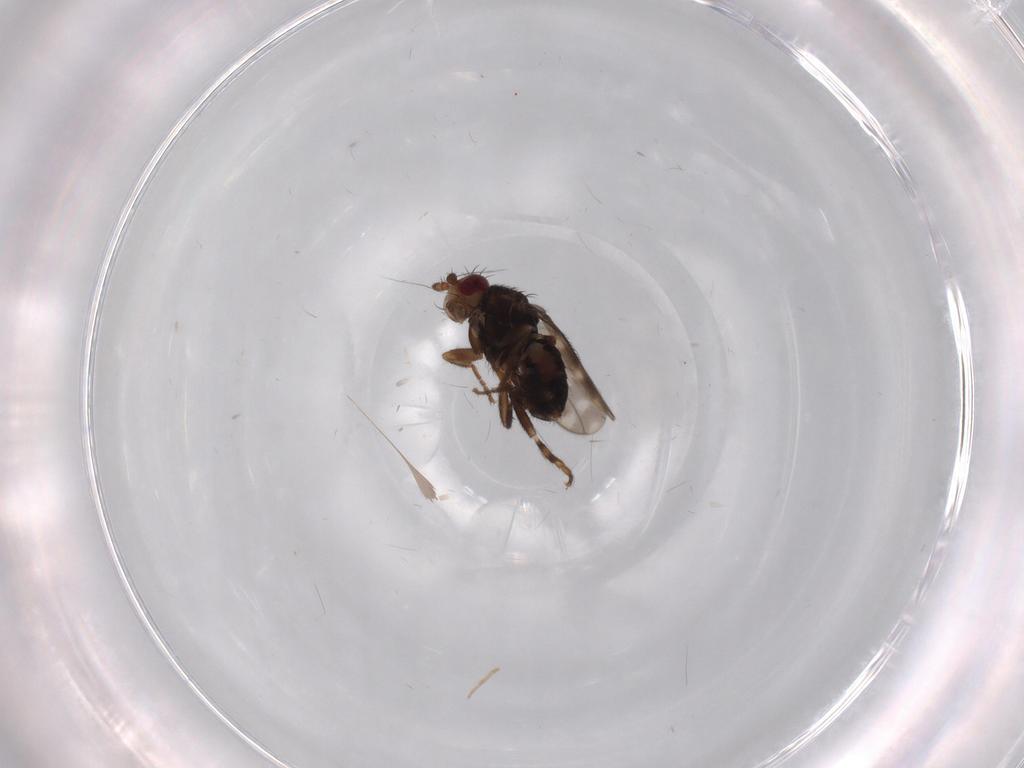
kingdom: Animalia
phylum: Arthropoda
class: Insecta
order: Diptera
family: Sphaeroceridae
